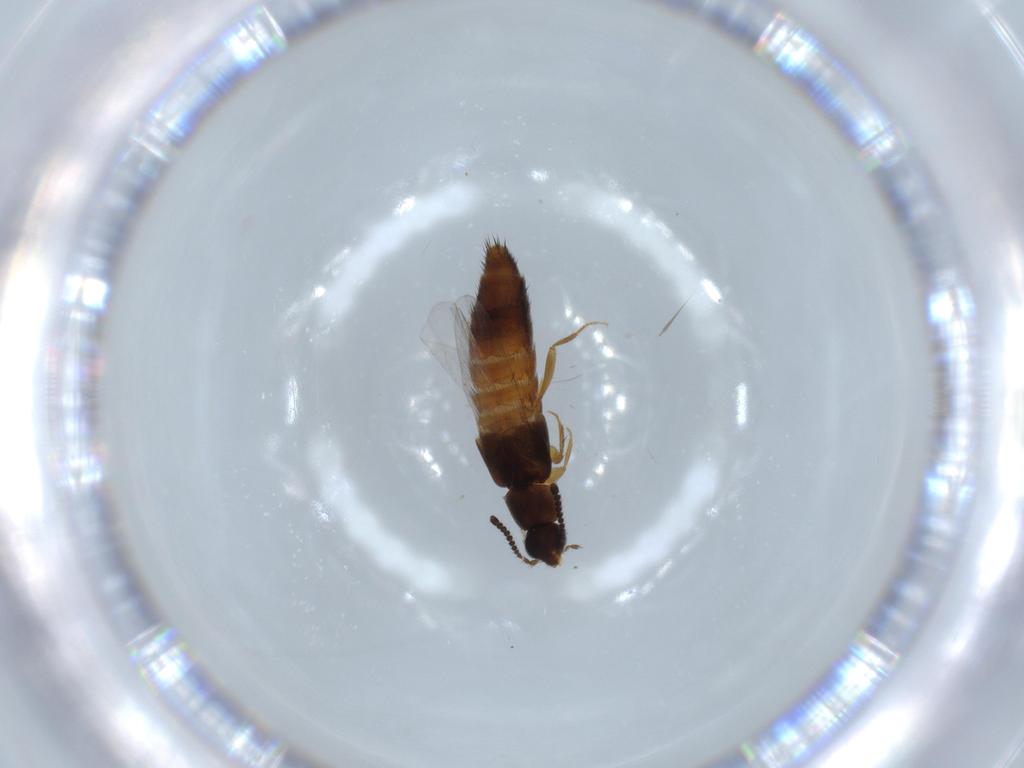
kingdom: Animalia
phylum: Arthropoda
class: Insecta
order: Coleoptera
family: Staphylinidae
